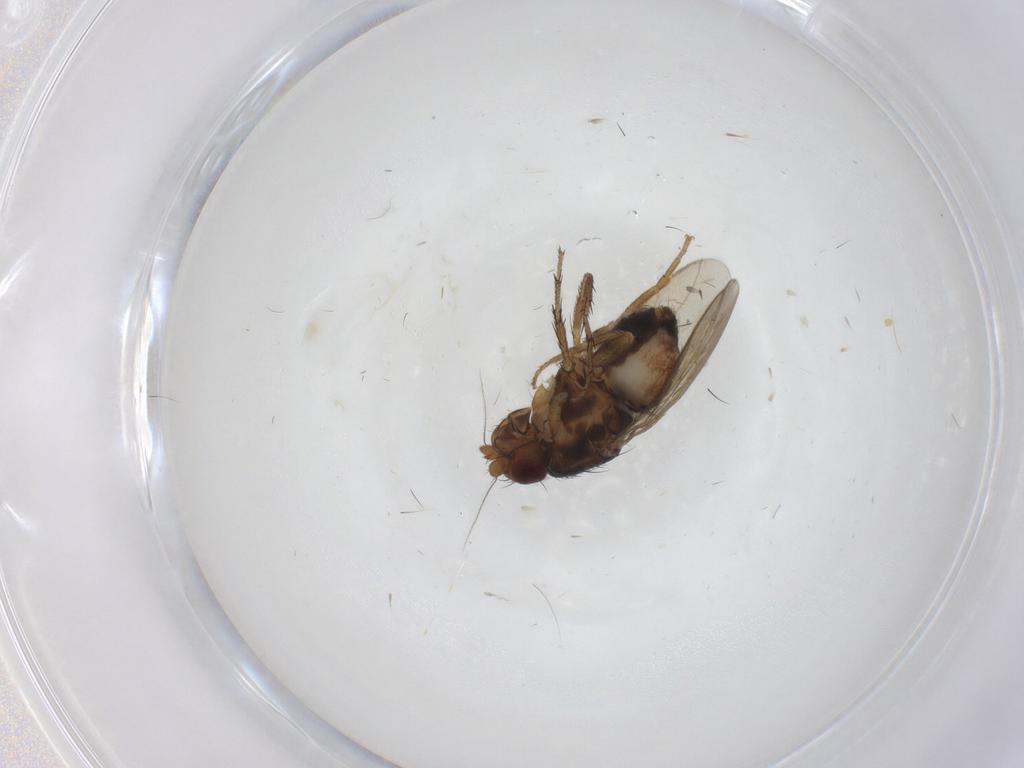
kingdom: Animalia
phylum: Arthropoda
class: Insecta
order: Diptera
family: Sphaeroceridae
